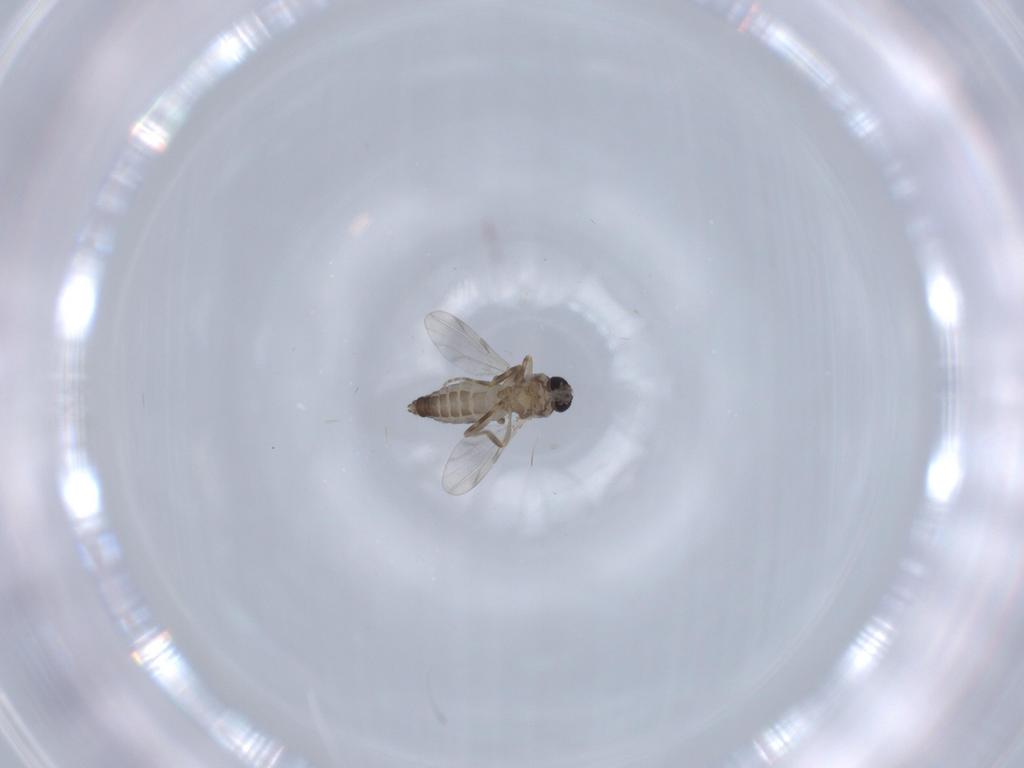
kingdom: Animalia
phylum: Arthropoda
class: Insecta
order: Diptera
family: Ceratopogonidae
